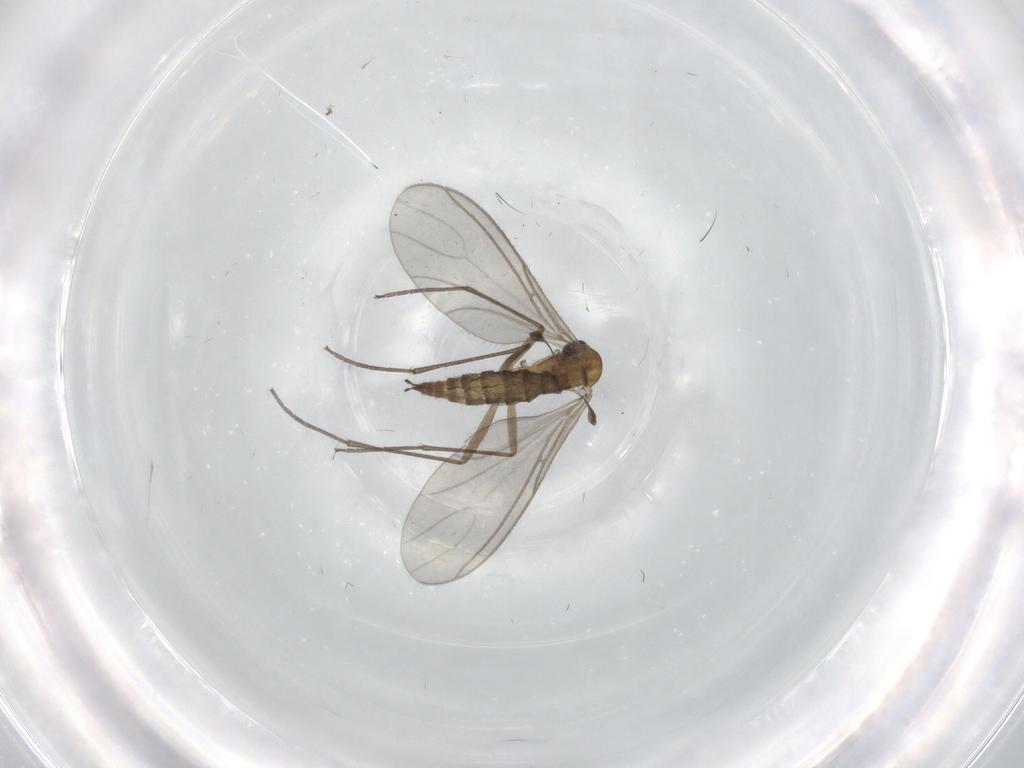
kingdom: Animalia
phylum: Arthropoda
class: Insecta
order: Diptera
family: Sciaridae
